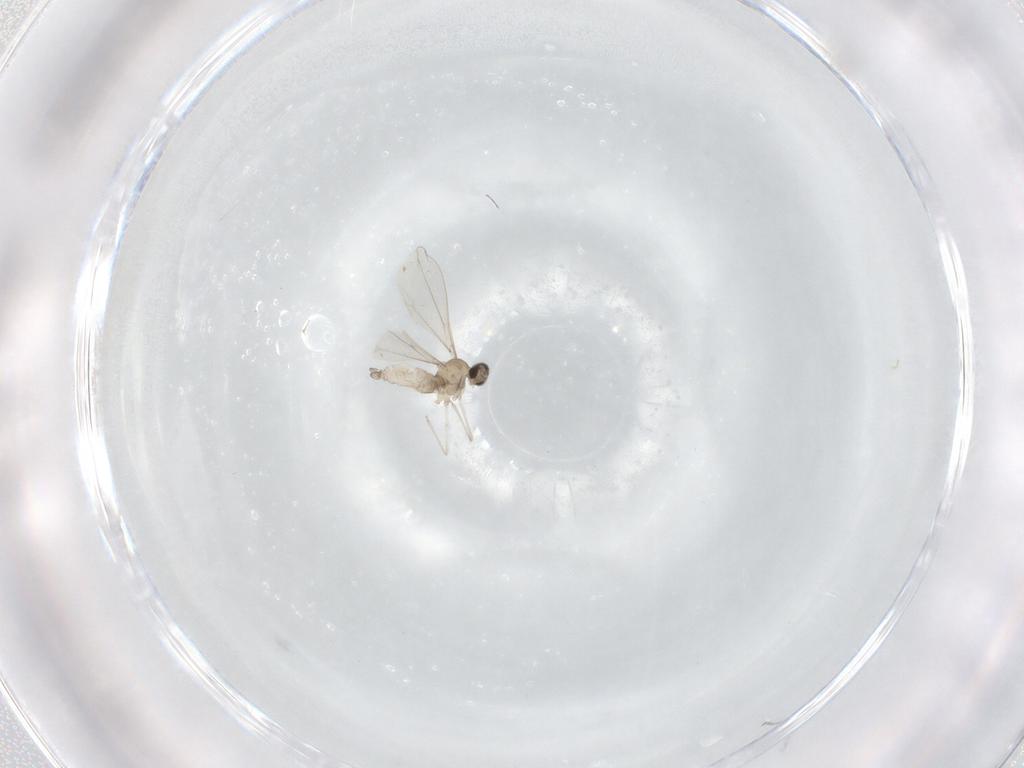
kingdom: Animalia
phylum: Arthropoda
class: Insecta
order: Diptera
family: Cecidomyiidae
